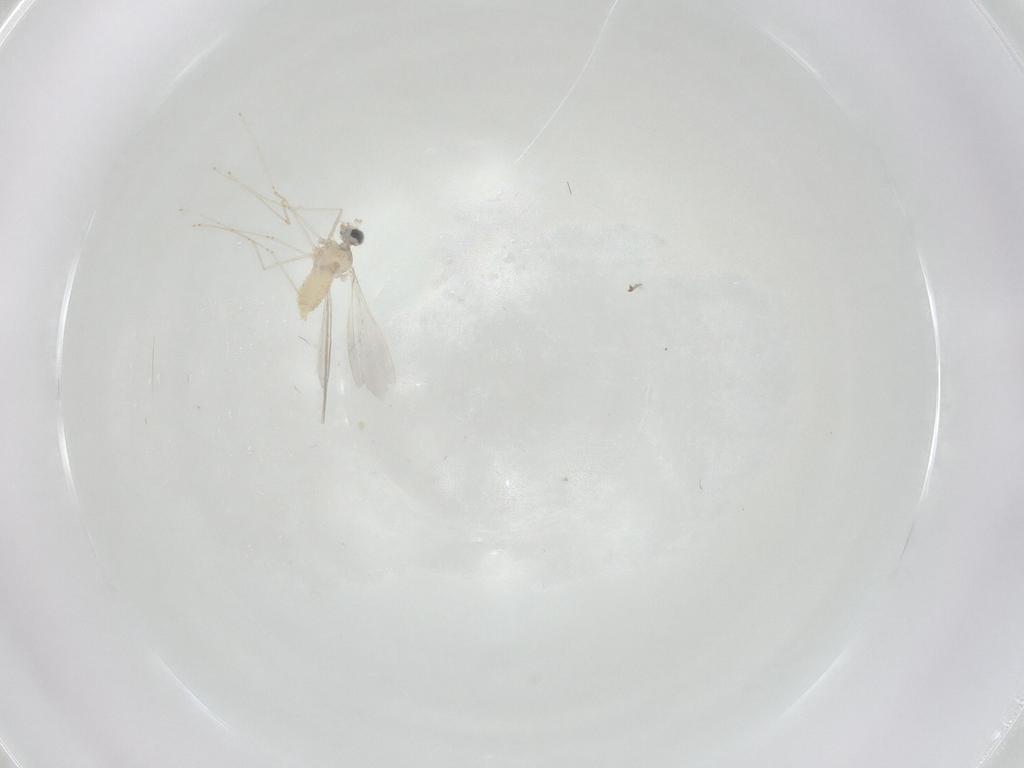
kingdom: Animalia
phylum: Arthropoda
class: Insecta
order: Diptera
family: Cecidomyiidae
